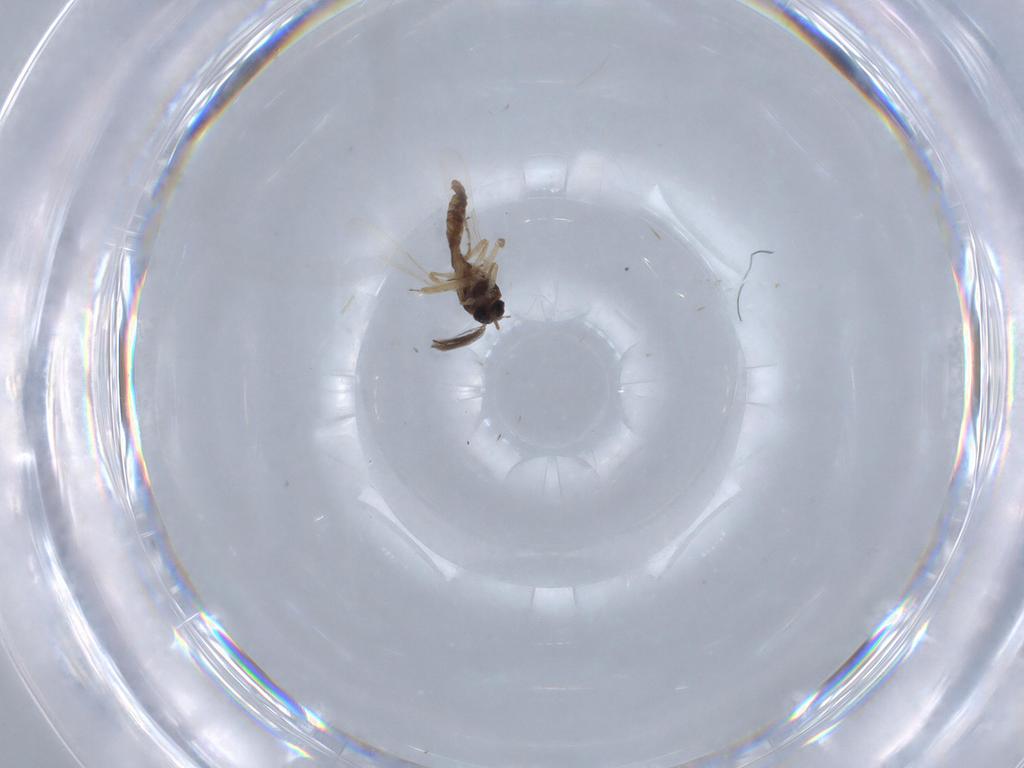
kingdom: Animalia
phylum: Arthropoda
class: Insecta
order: Diptera
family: Ceratopogonidae
